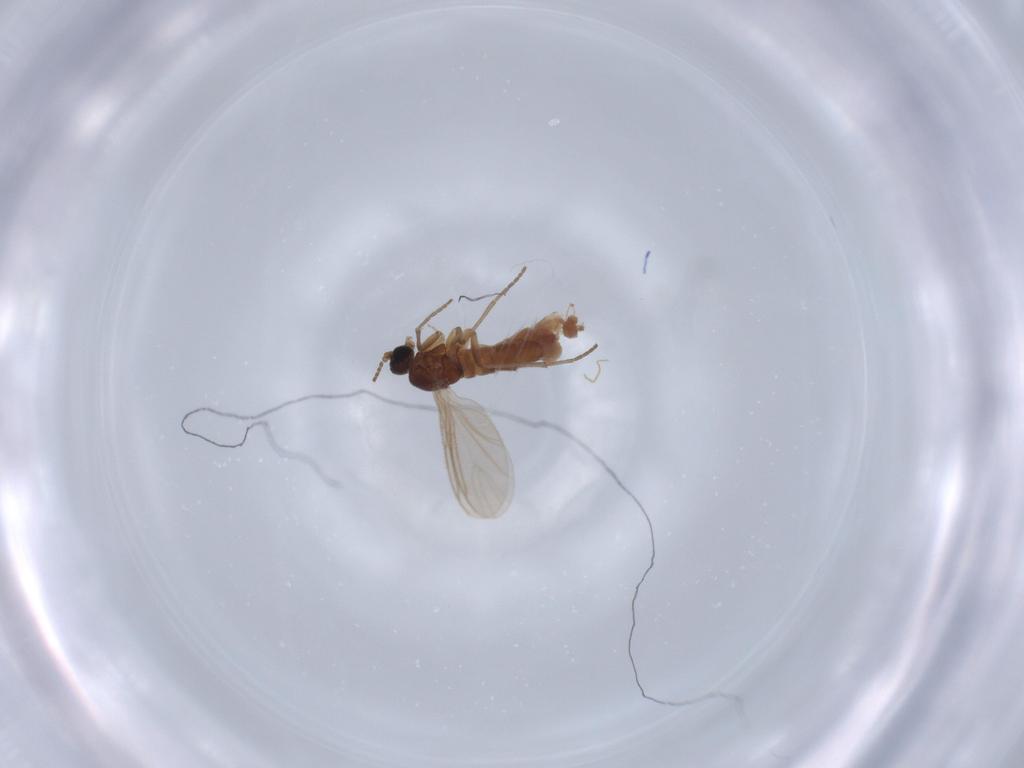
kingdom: Animalia
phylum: Arthropoda
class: Insecta
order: Diptera
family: Sciaridae
